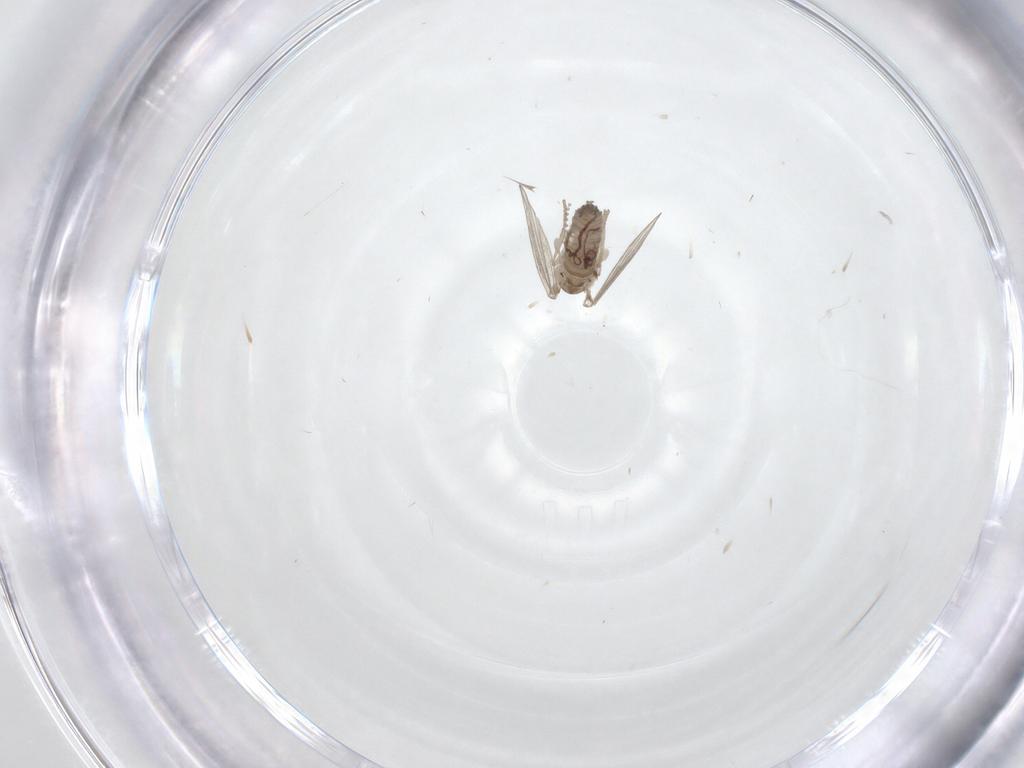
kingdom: Animalia
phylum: Arthropoda
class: Insecta
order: Diptera
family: Psychodidae
